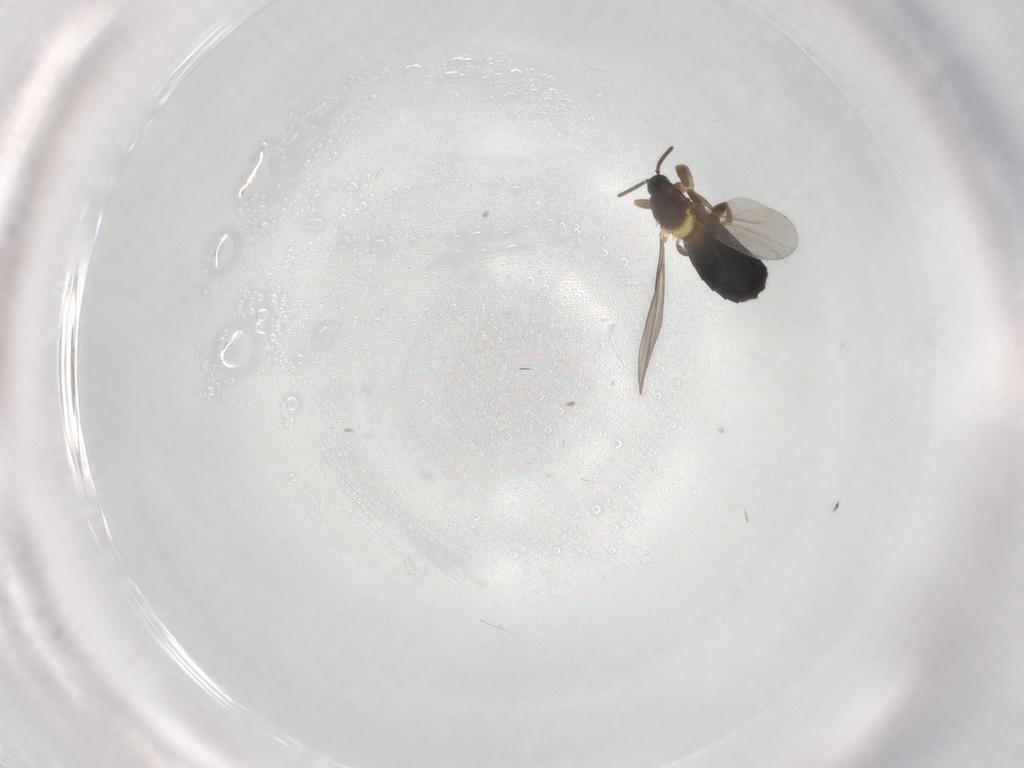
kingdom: Animalia
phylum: Arthropoda
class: Insecta
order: Diptera
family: Scatopsidae
